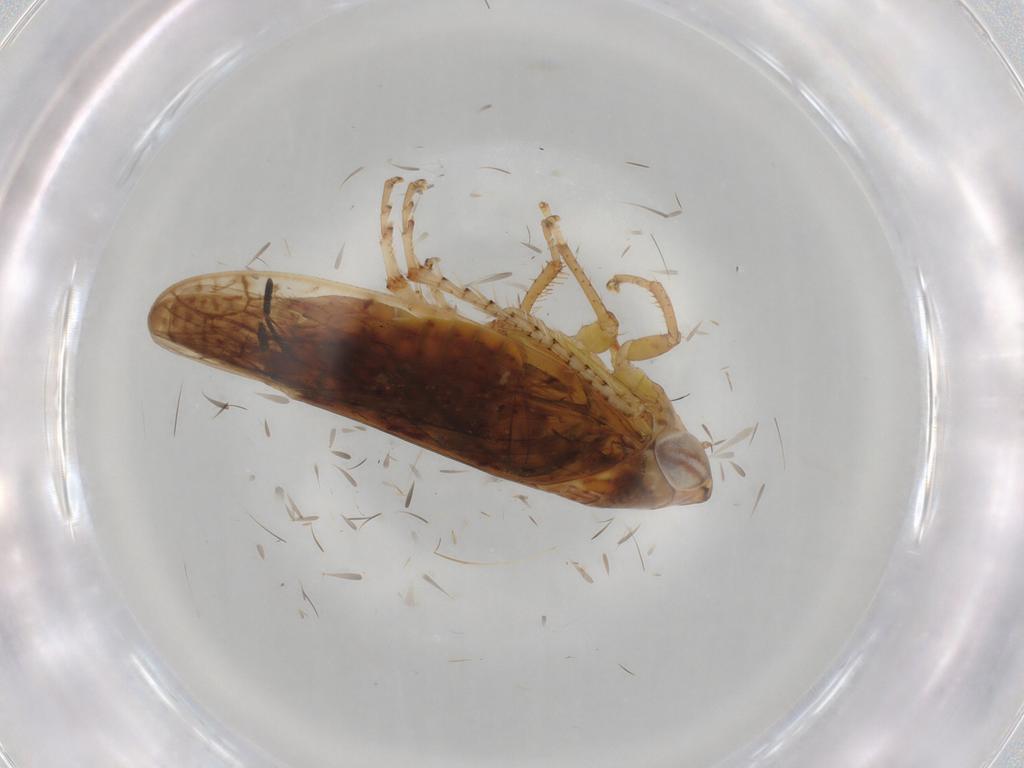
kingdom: Animalia
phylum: Arthropoda
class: Insecta
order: Hemiptera
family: Cicadellidae
